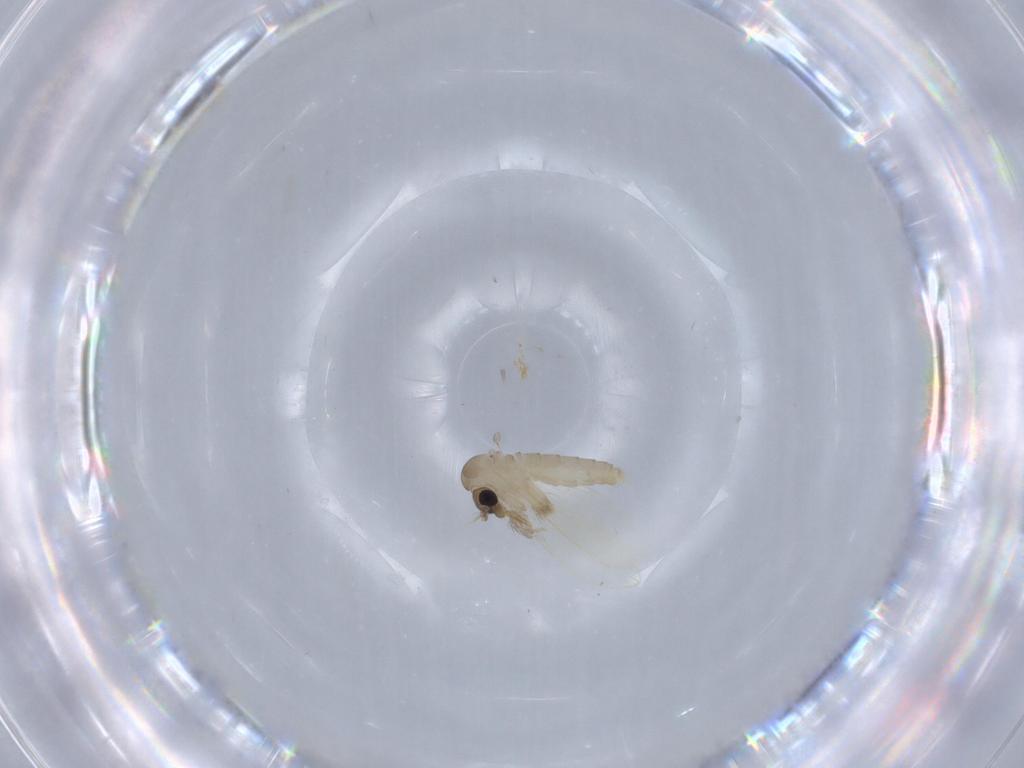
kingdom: Animalia
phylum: Arthropoda
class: Insecta
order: Diptera
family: Psychodidae
